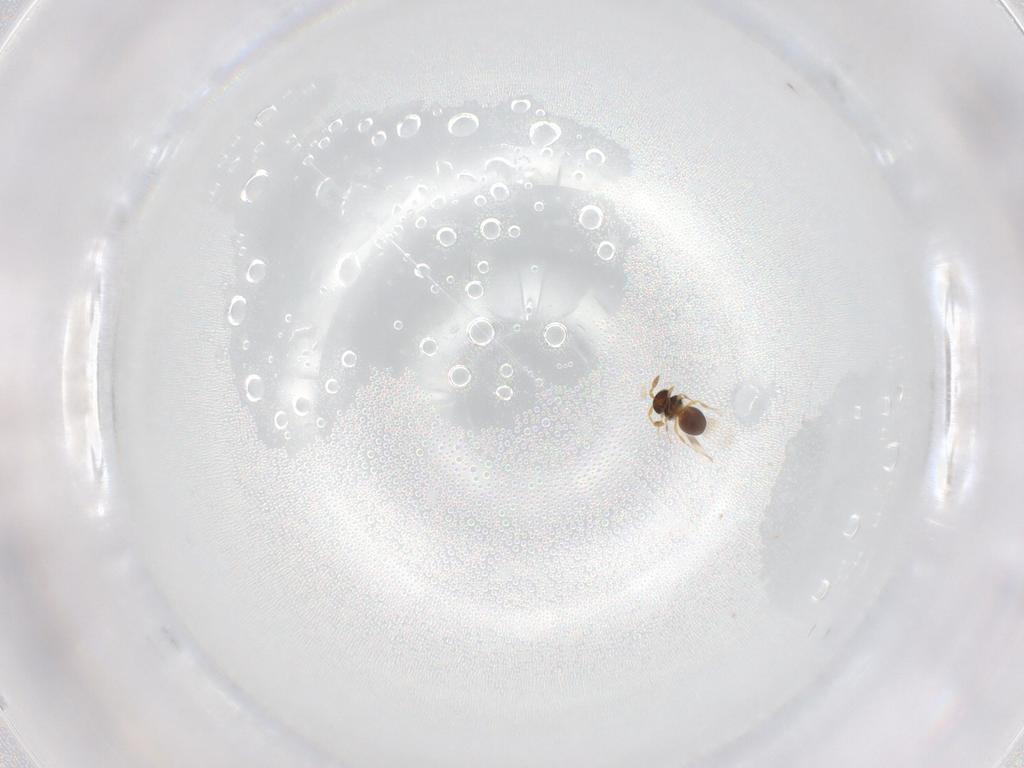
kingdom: Animalia
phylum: Arthropoda
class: Insecta
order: Hymenoptera
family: Platygastridae
